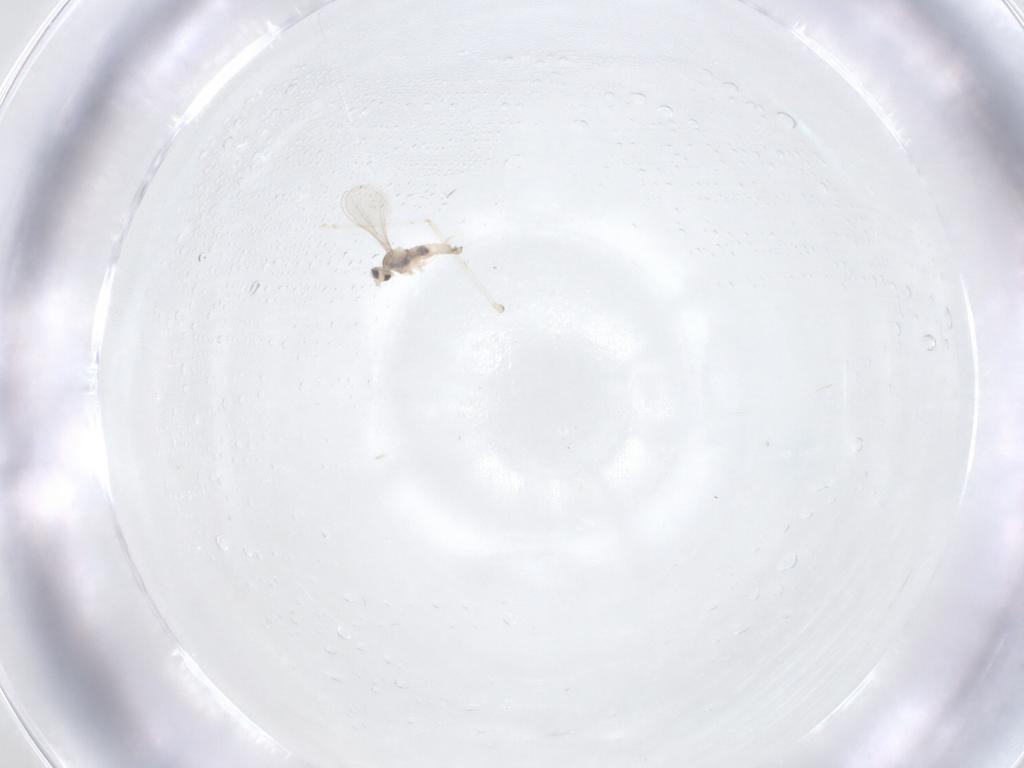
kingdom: Animalia
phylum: Arthropoda
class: Insecta
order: Diptera
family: Cecidomyiidae
